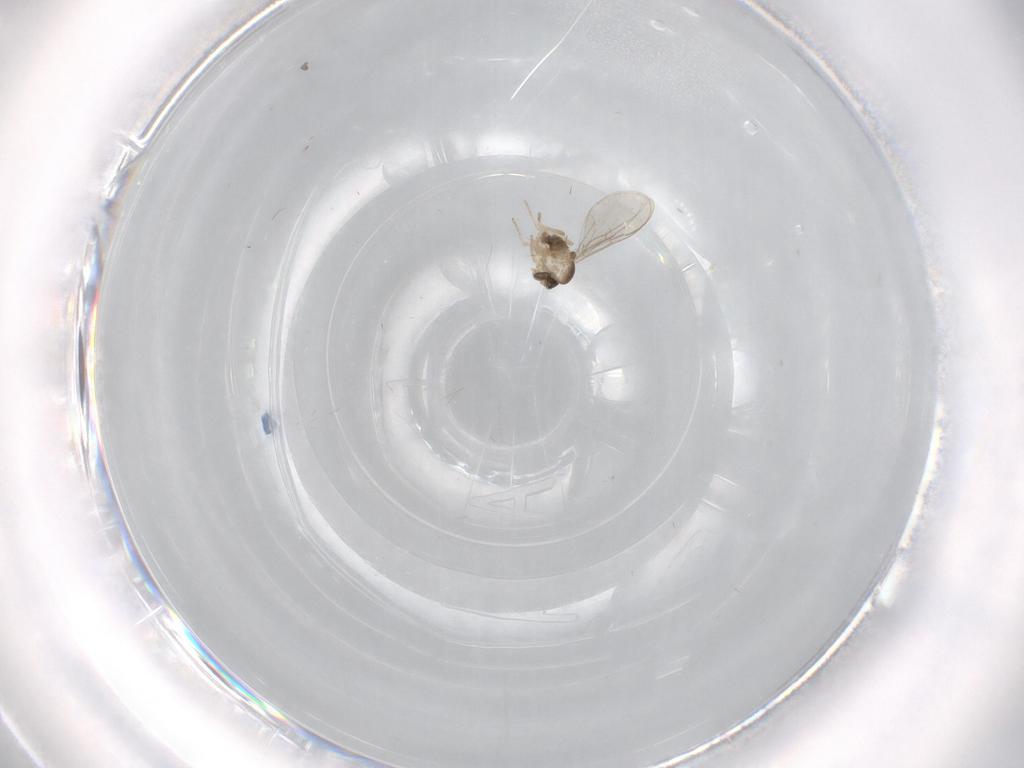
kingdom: Animalia
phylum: Arthropoda
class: Insecta
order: Diptera
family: Cecidomyiidae
